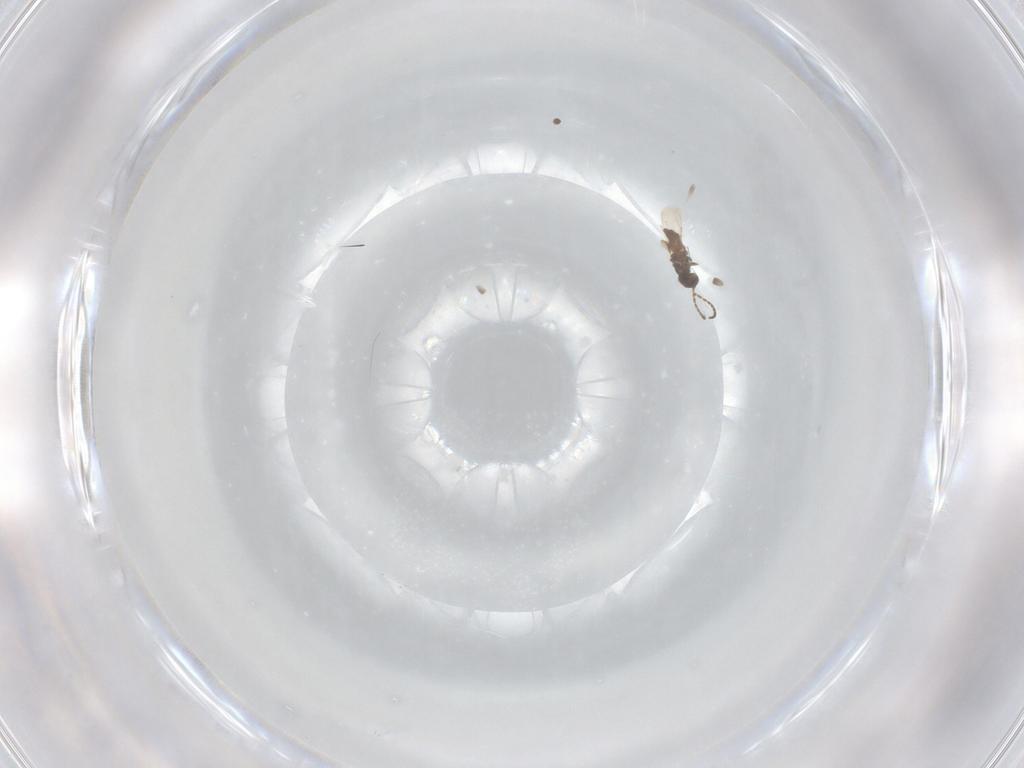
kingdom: Animalia
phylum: Arthropoda
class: Insecta
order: Hymenoptera
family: Ceraphronidae
